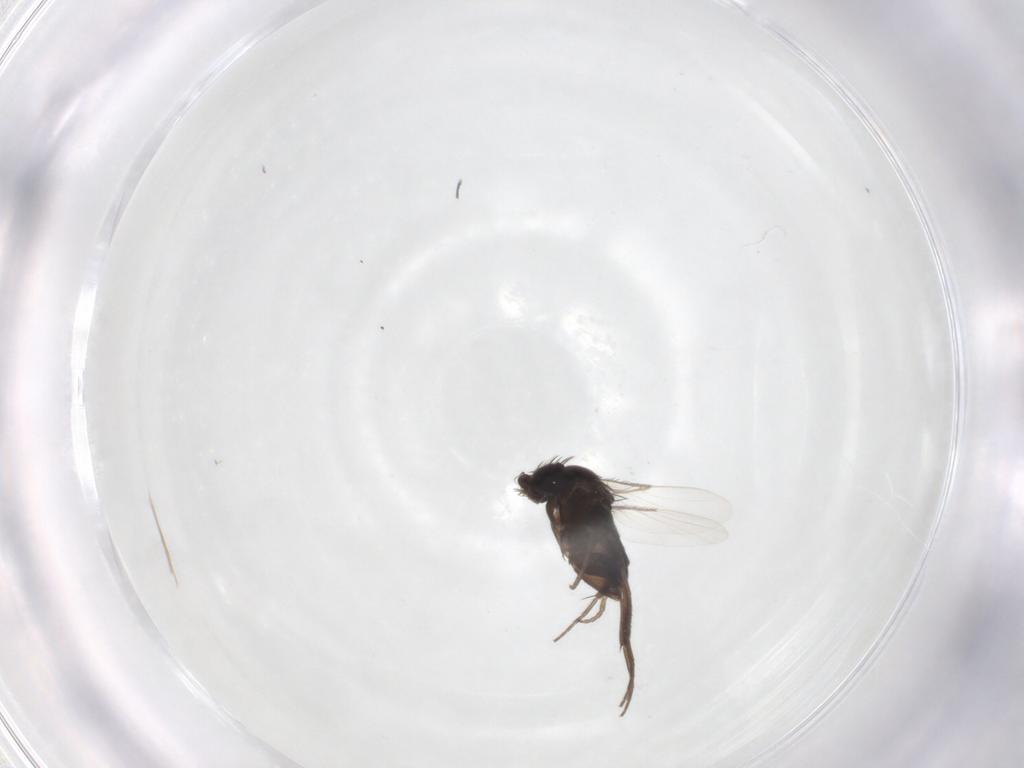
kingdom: Animalia
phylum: Arthropoda
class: Insecta
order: Diptera
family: Phoridae
